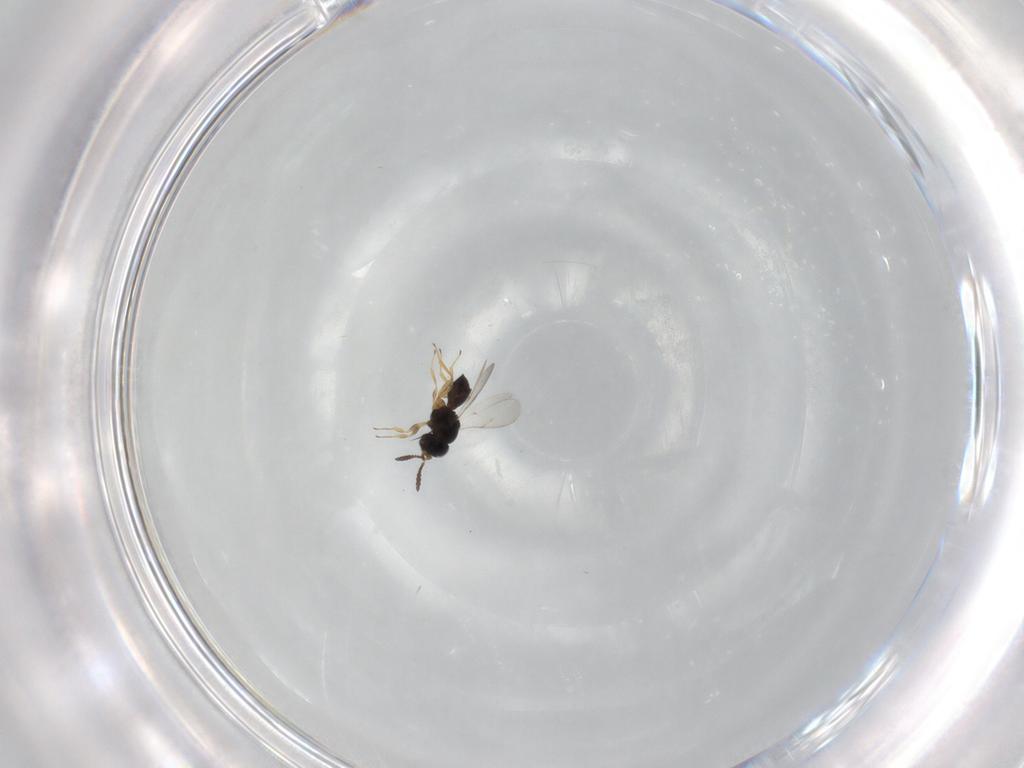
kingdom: Animalia
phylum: Arthropoda
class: Insecta
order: Hymenoptera
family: Scelionidae
